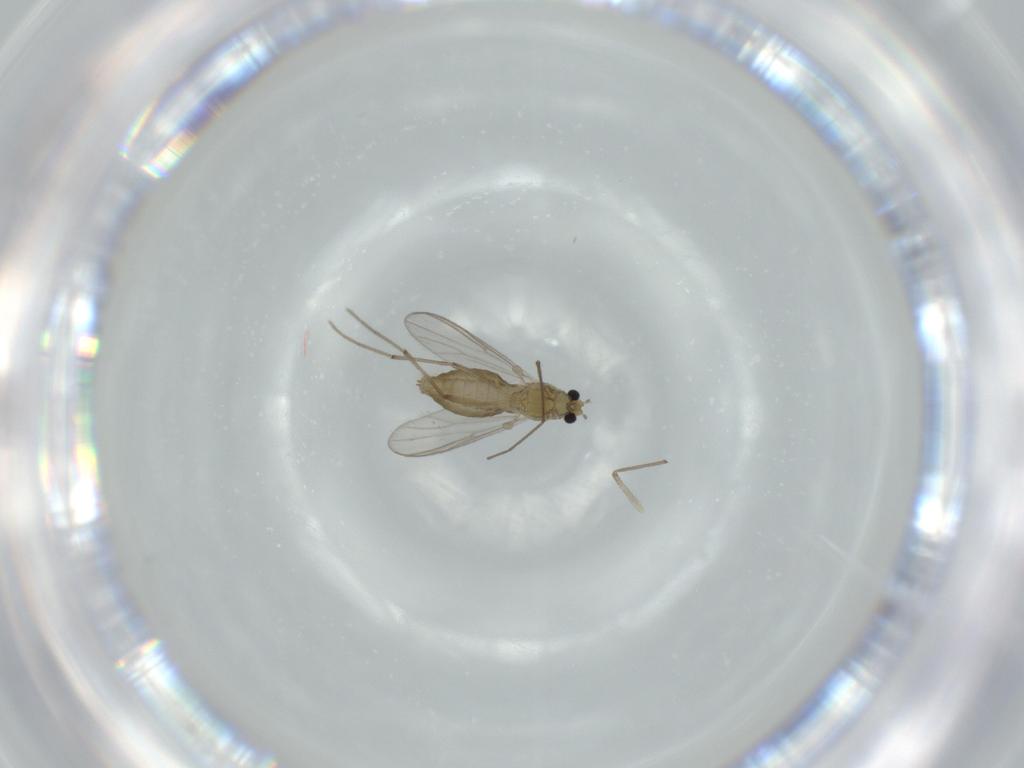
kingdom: Animalia
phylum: Arthropoda
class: Insecta
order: Diptera
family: Chironomidae
